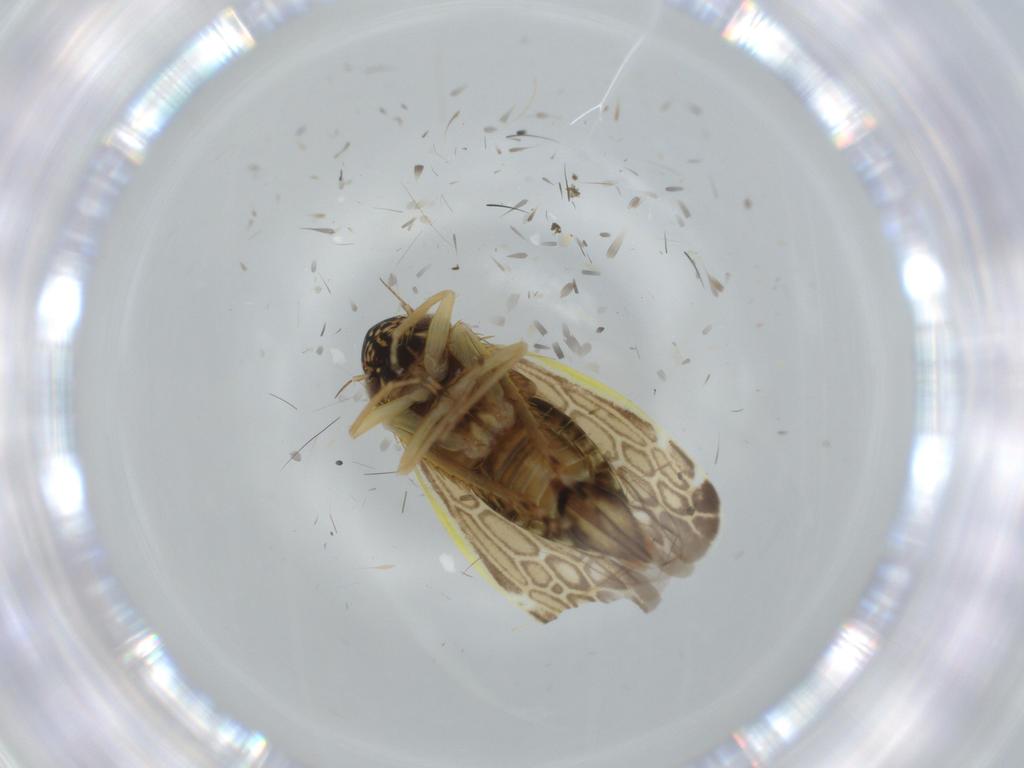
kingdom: Animalia
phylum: Arthropoda
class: Insecta
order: Hemiptera
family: Cicadellidae
